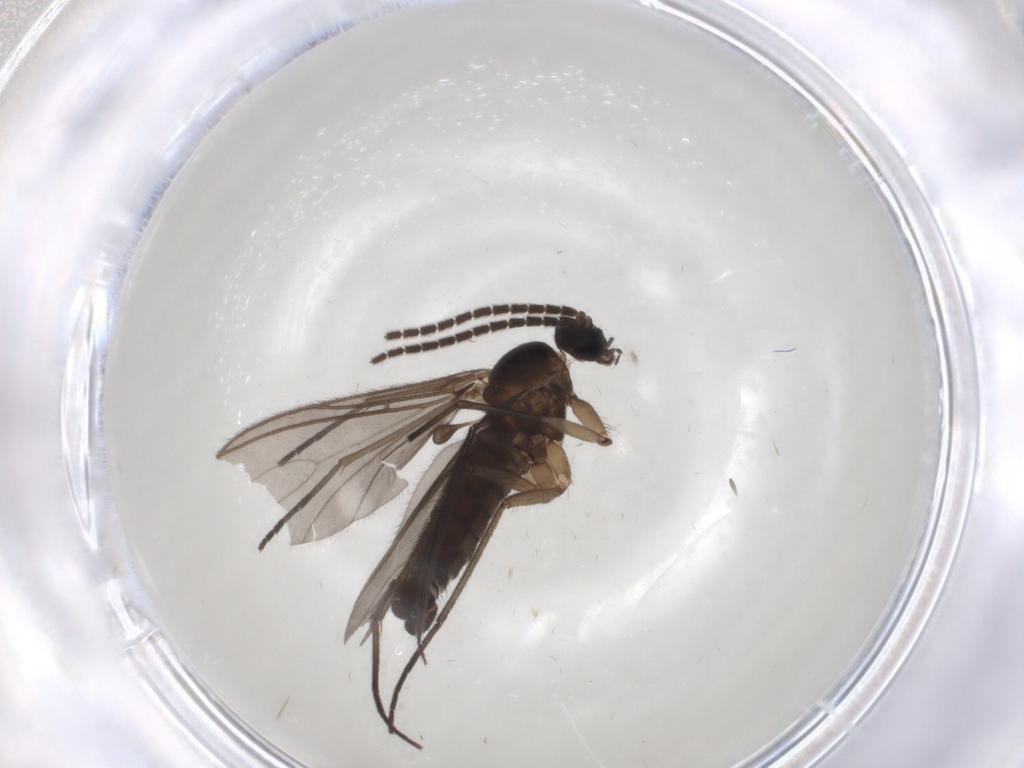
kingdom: Animalia
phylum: Arthropoda
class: Insecta
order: Diptera
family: Sciaridae
